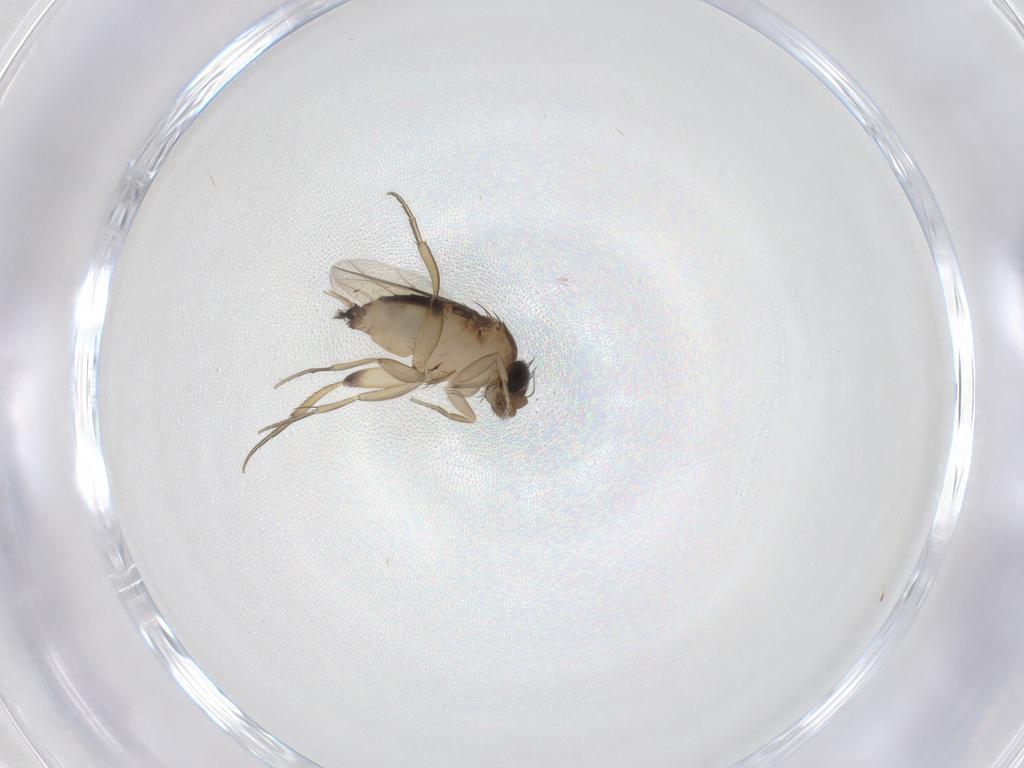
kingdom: Animalia
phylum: Arthropoda
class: Insecta
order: Diptera
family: Phoridae
